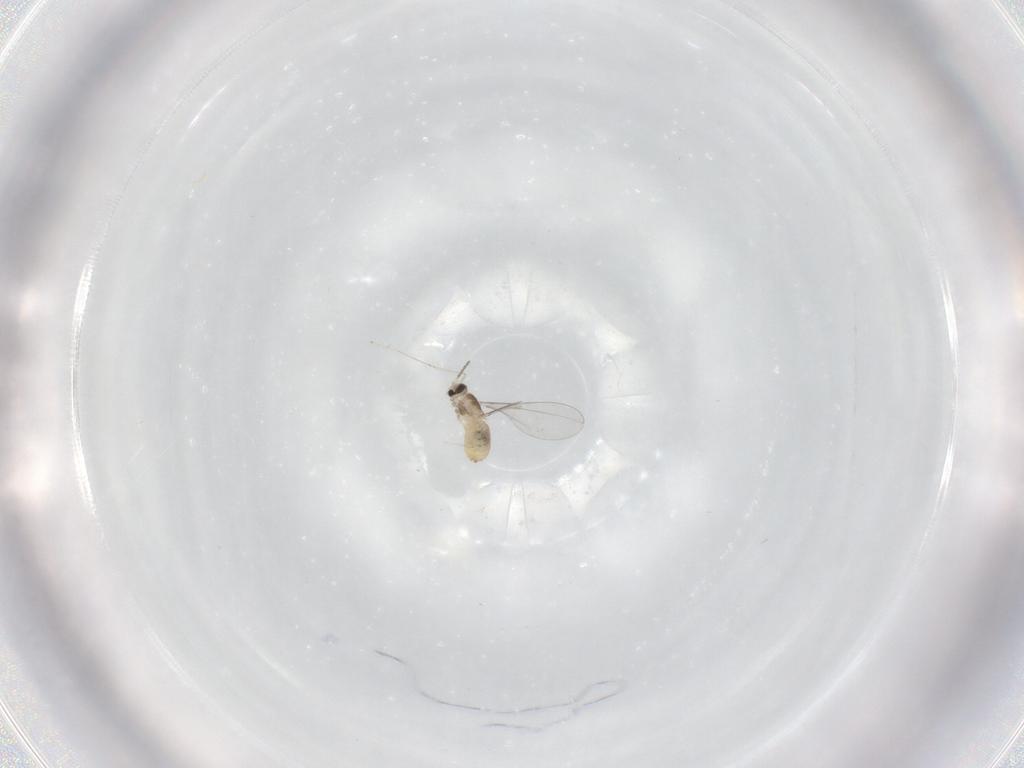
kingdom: Animalia
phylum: Arthropoda
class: Insecta
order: Diptera
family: Cecidomyiidae
